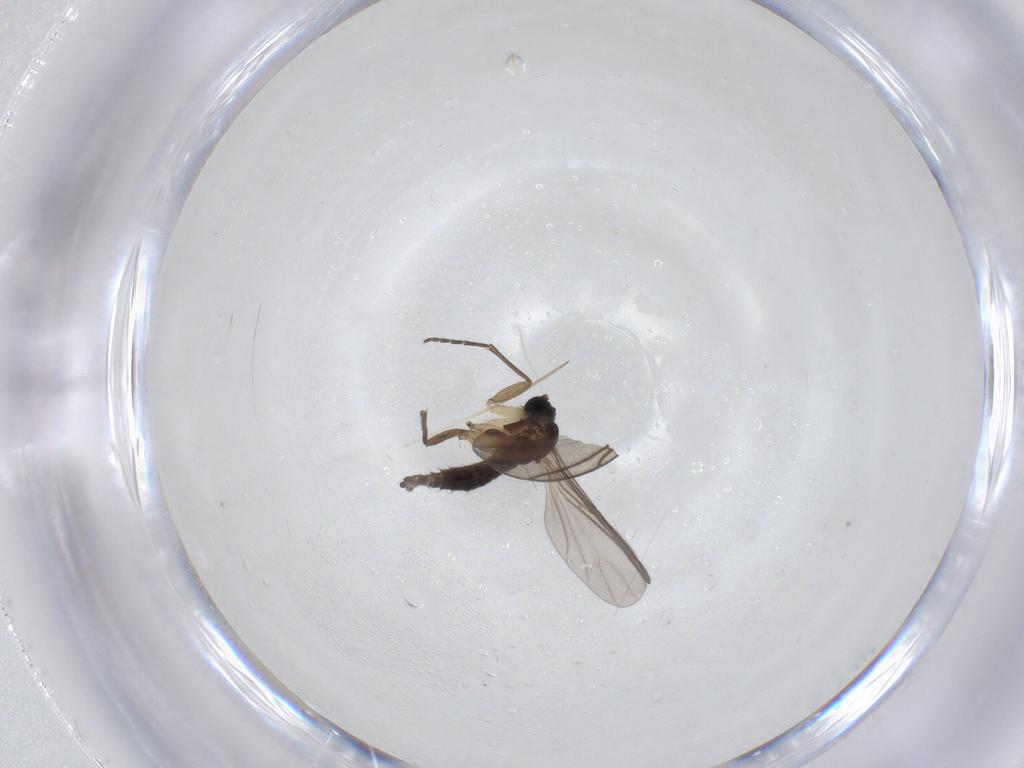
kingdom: Animalia
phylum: Arthropoda
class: Insecta
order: Diptera
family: Sciaridae
